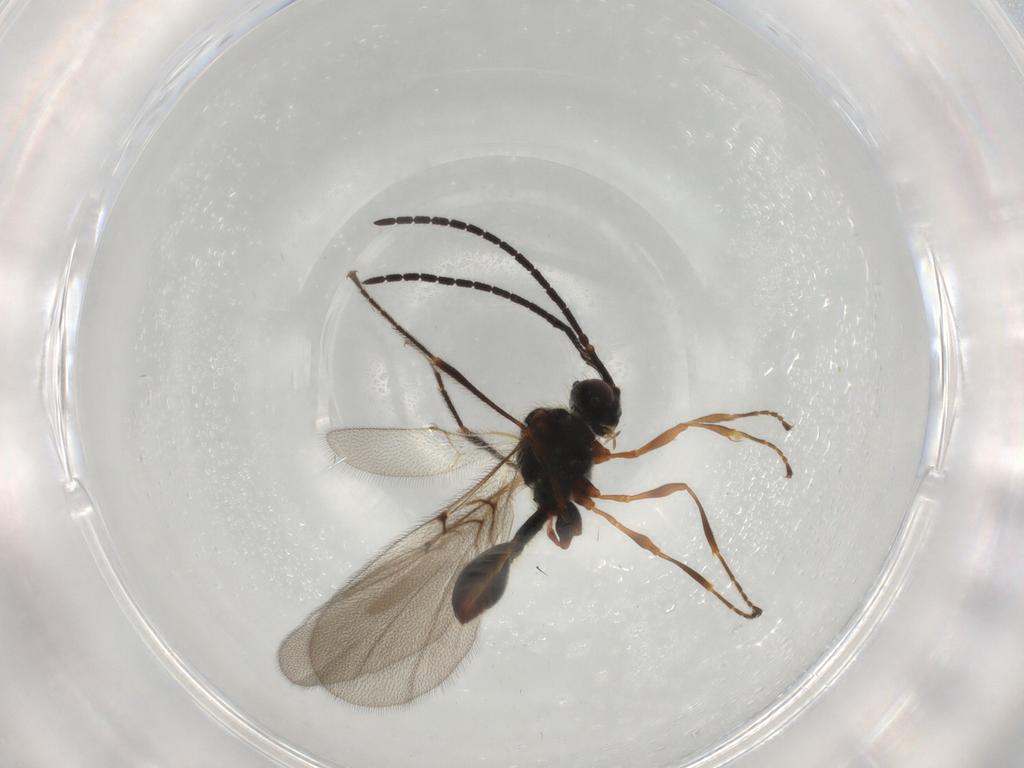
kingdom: Animalia
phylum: Arthropoda
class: Insecta
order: Hymenoptera
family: Diapriidae
